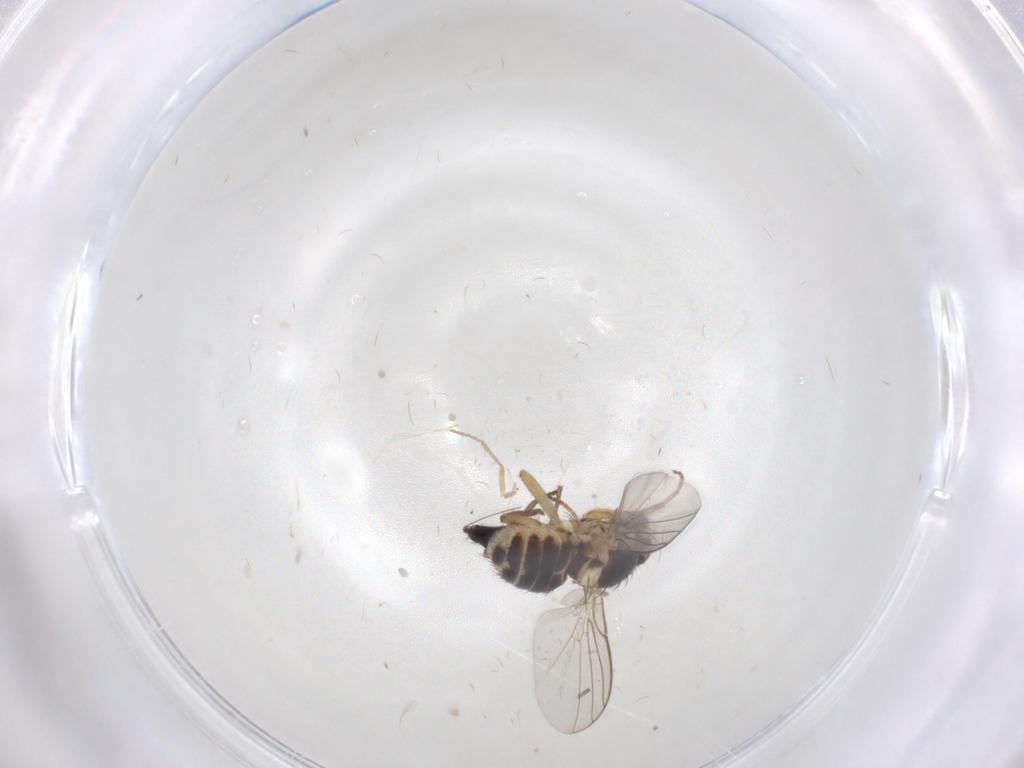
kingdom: Animalia
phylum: Arthropoda
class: Insecta
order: Diptera
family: Agromyzidae
